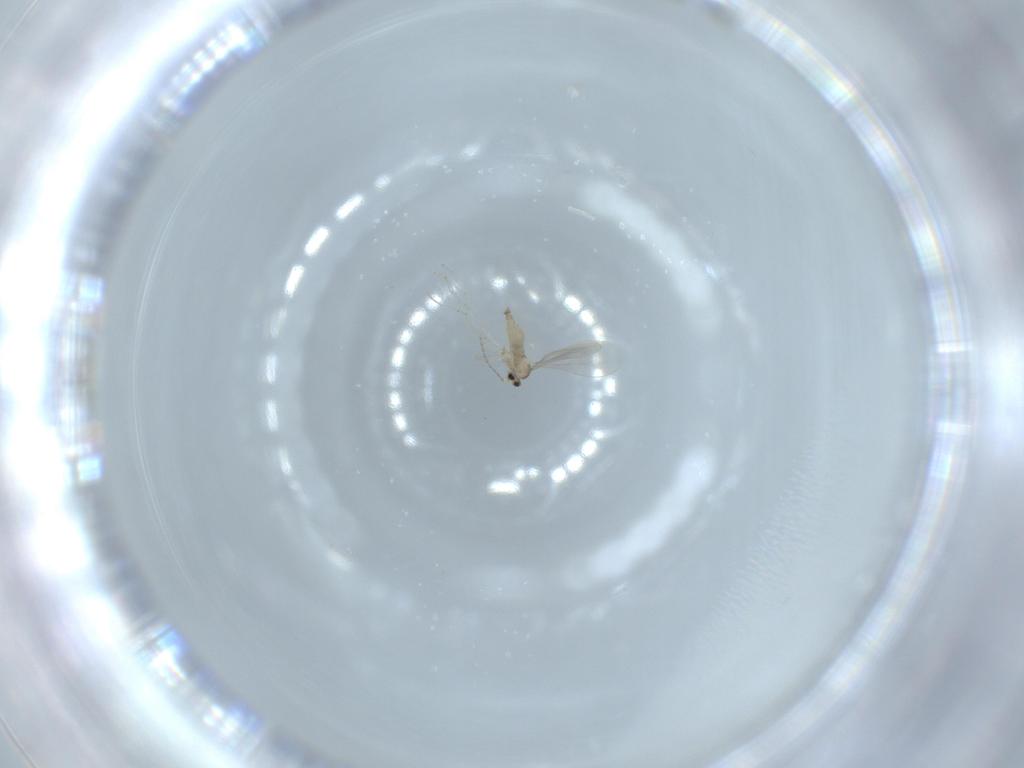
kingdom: Animalia
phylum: Arthropoda
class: Insecta
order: Diptera
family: Cecidomyiidae
